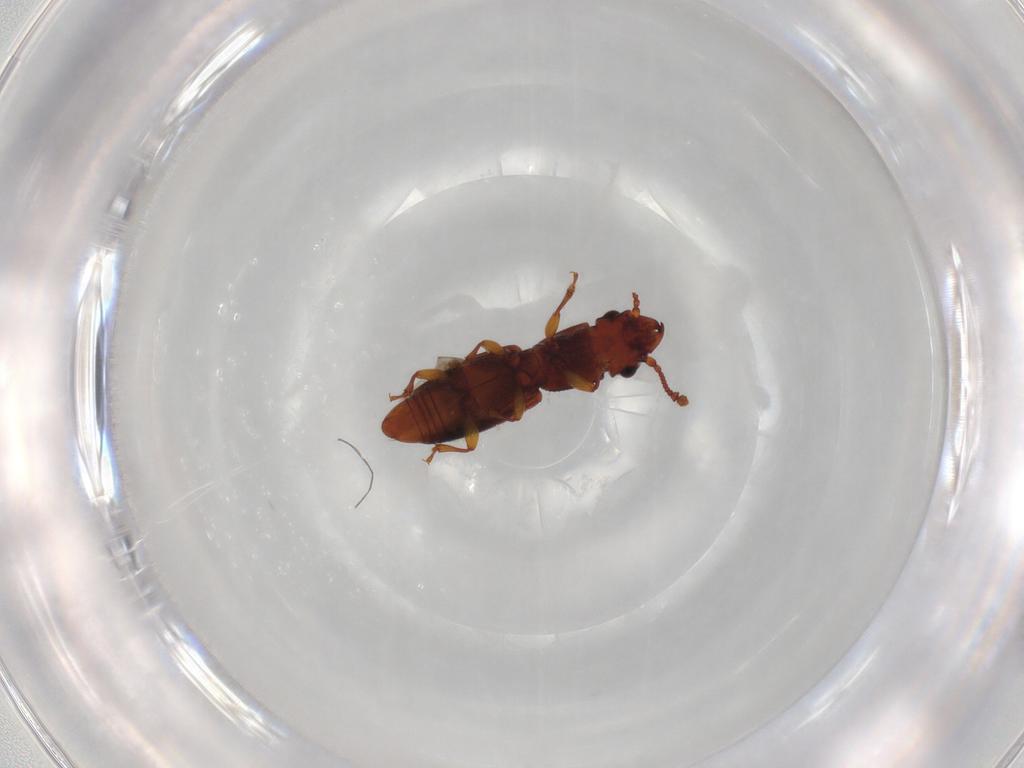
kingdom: Animalia
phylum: Arthropoda
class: Insecta
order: Coleoptera
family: Monotomidae
